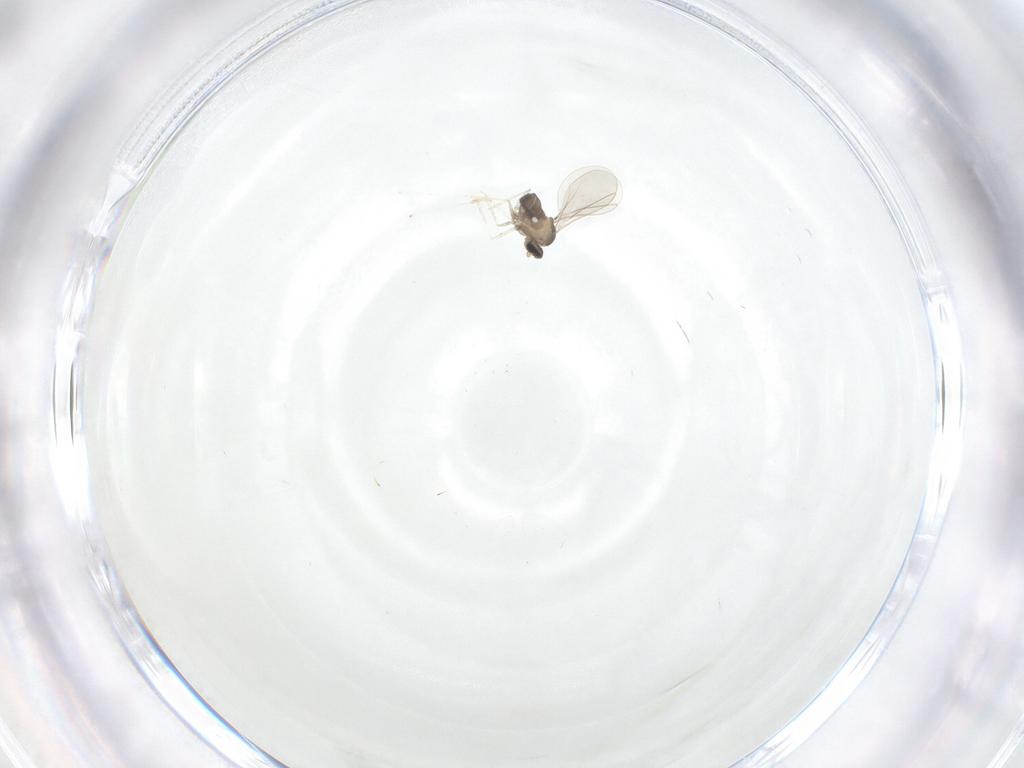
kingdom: Animalia
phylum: Arthropoda
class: Insecta
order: Diptera
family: Cecidomyiidae
